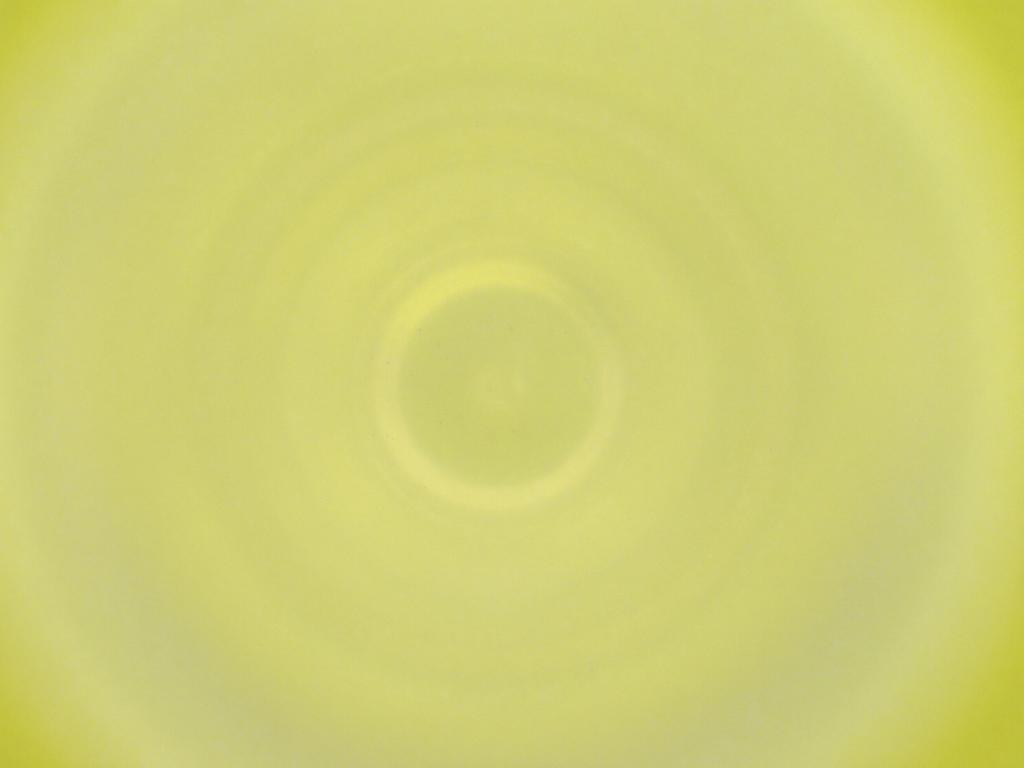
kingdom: Animalia
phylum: Arthropoda
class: Insecta
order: Diptera
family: Cecidomyiidae
